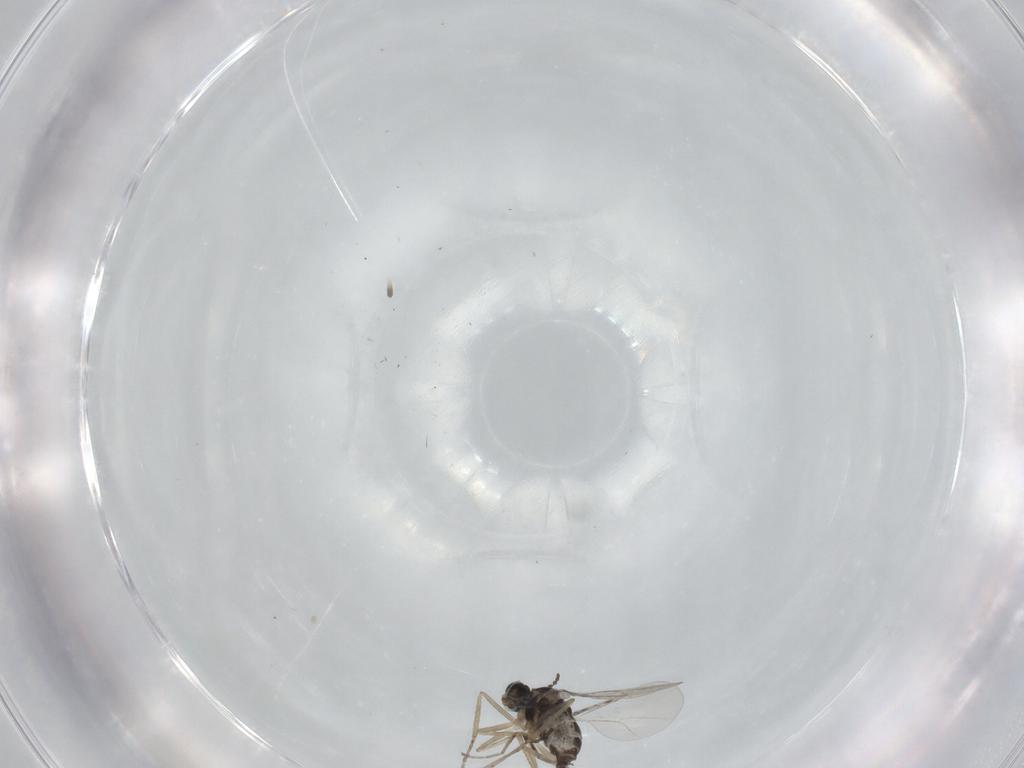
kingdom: Animalia
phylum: Arthropoda
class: Insecta
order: Diptera
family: Cecidomyiidae
